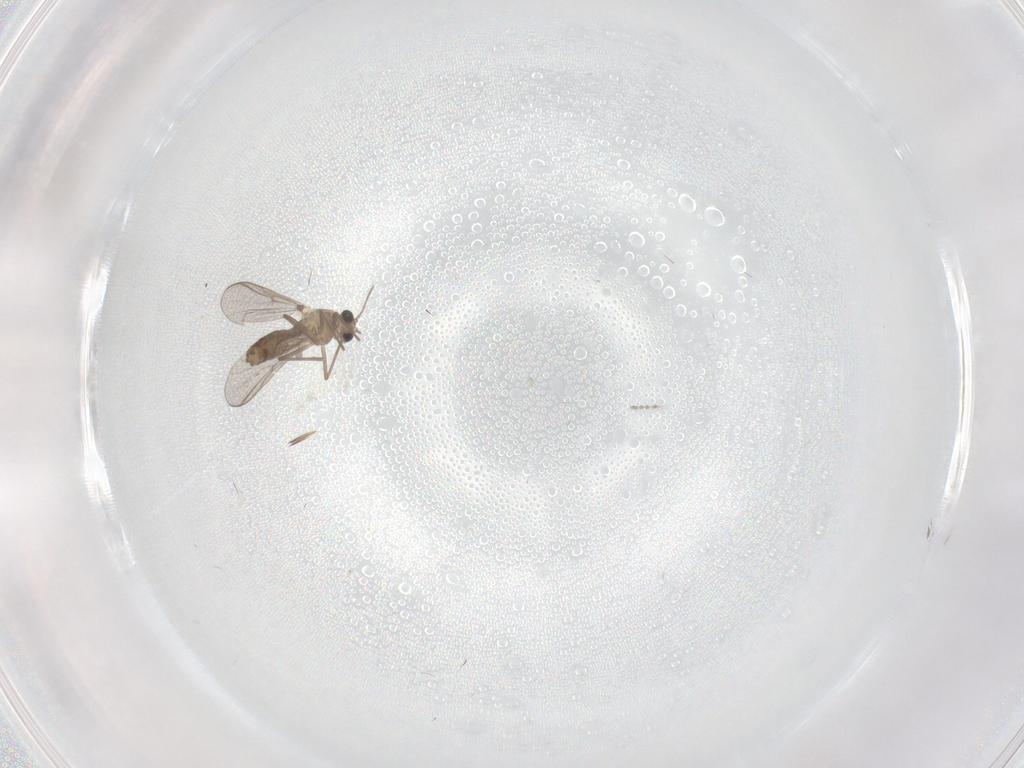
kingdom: Animalia
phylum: Arthropoda
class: Insecta
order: Diptera
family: Chironomidae
